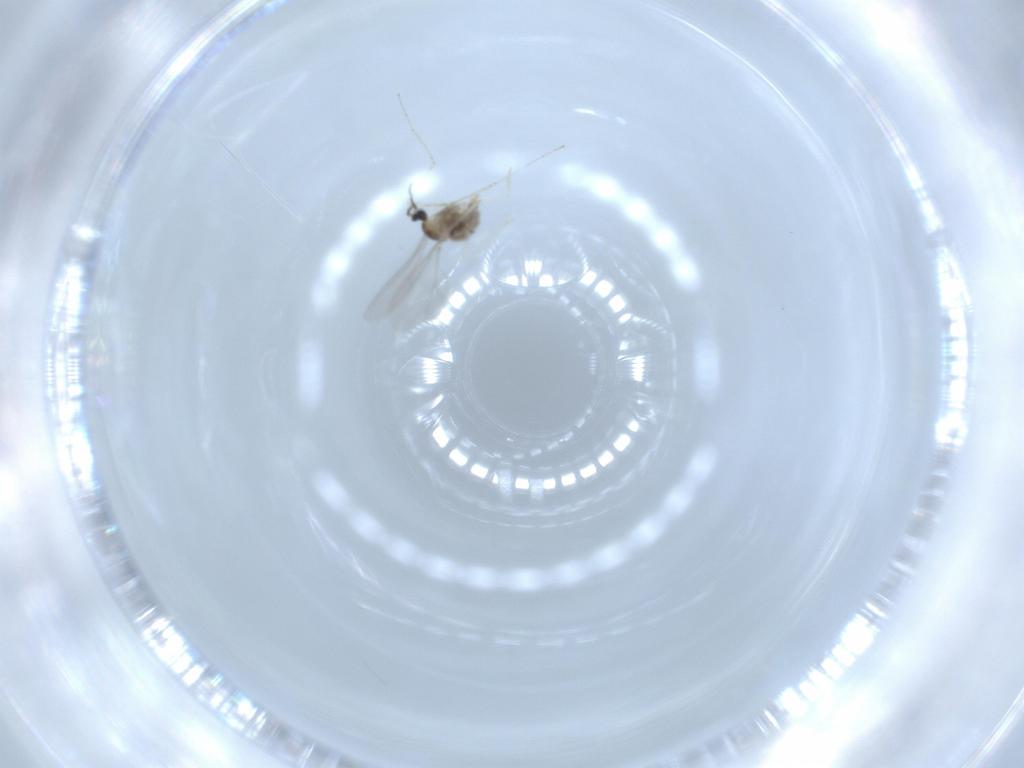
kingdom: Animalia
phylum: Arthropoda
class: Insecta
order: Diptera
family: Cecidomyiidae
